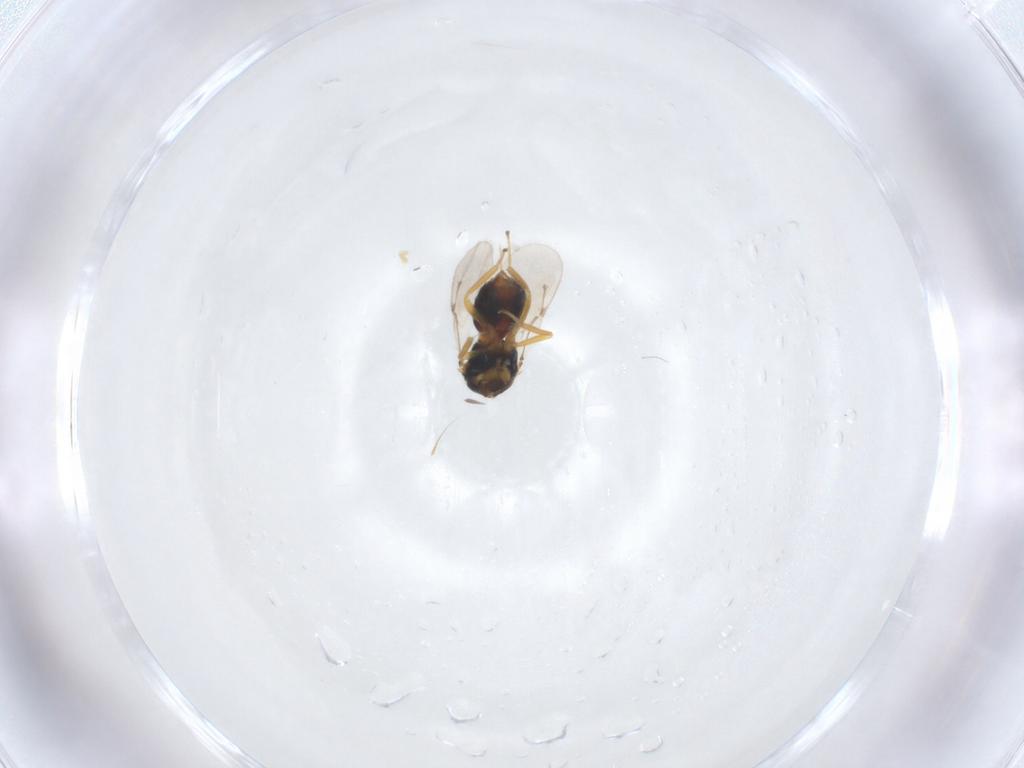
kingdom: Animalia
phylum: Arthropoda
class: Insecta
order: Hymenoptera
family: Pteromalidae
